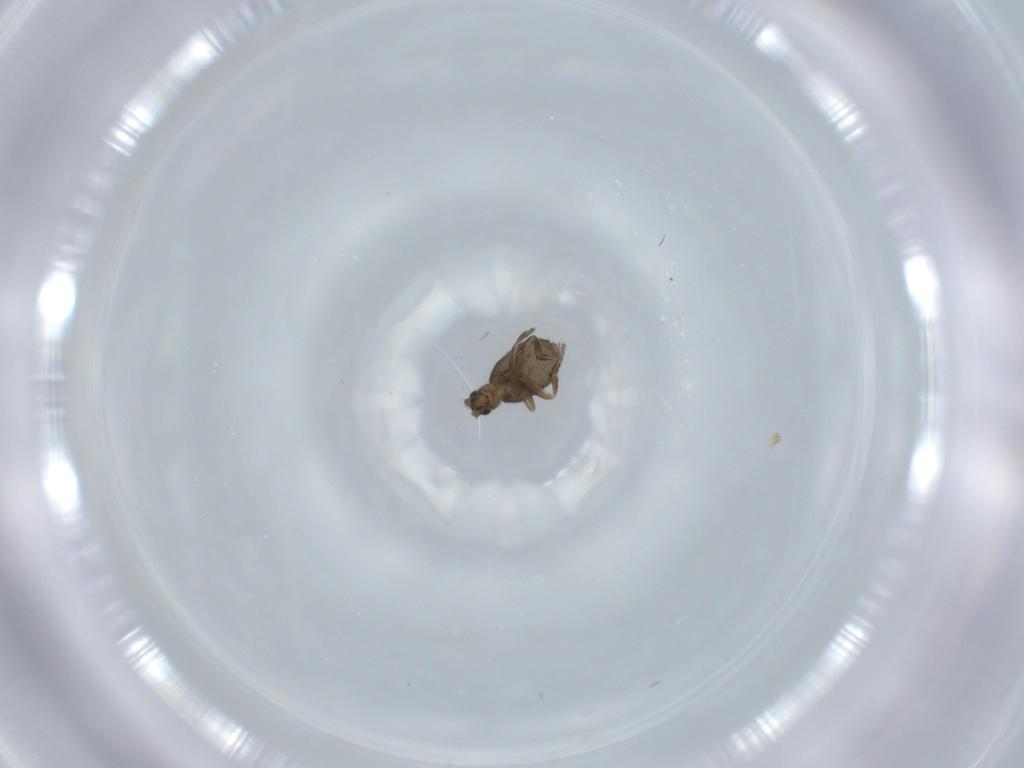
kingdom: Animalia
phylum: Arthropoda
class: Insecta
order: Diptera
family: Phoridae
